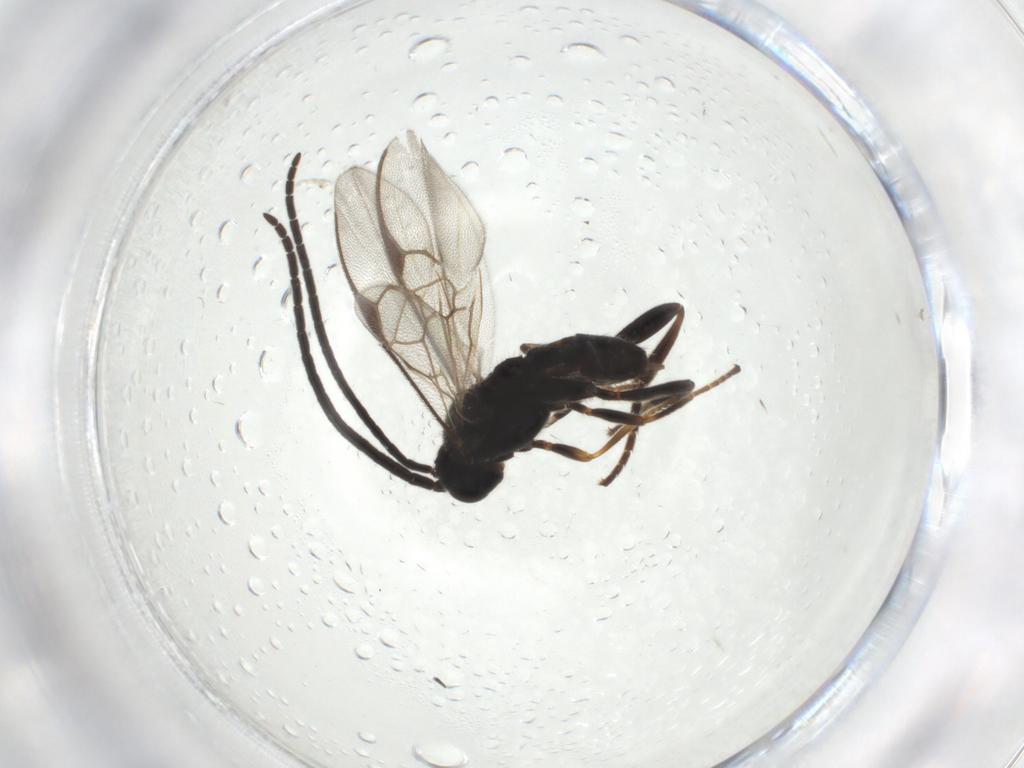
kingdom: Animalia
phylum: Arthropoda
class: Insecta
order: Hymenoptera
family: Braconidae
